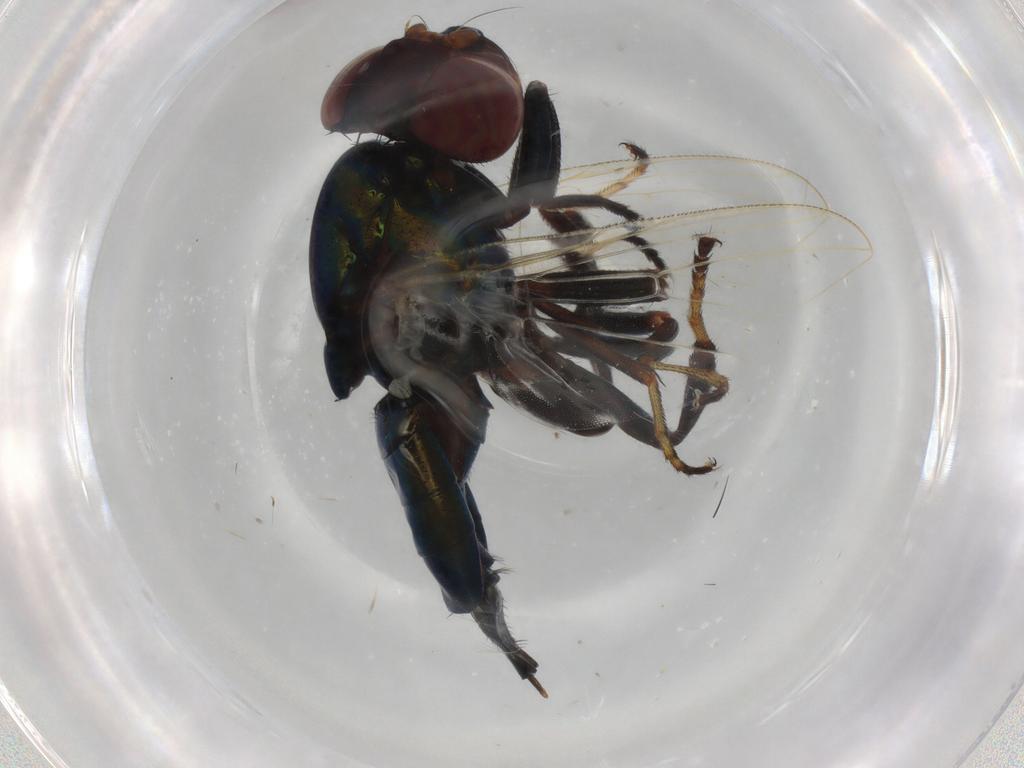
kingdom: Animalia
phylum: Arthropoda
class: Insecta
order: Diptera
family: Ulidiidae
